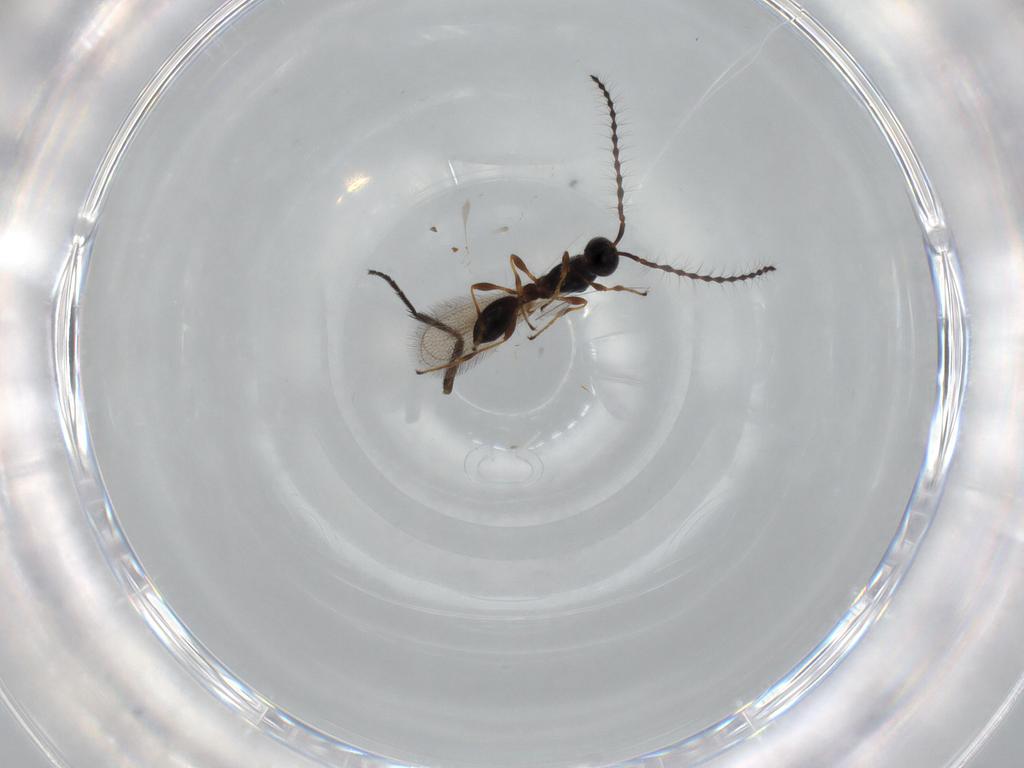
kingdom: Animalia
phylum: Arthropoda
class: Insecta
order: Hymenoptera
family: Diapriidae
